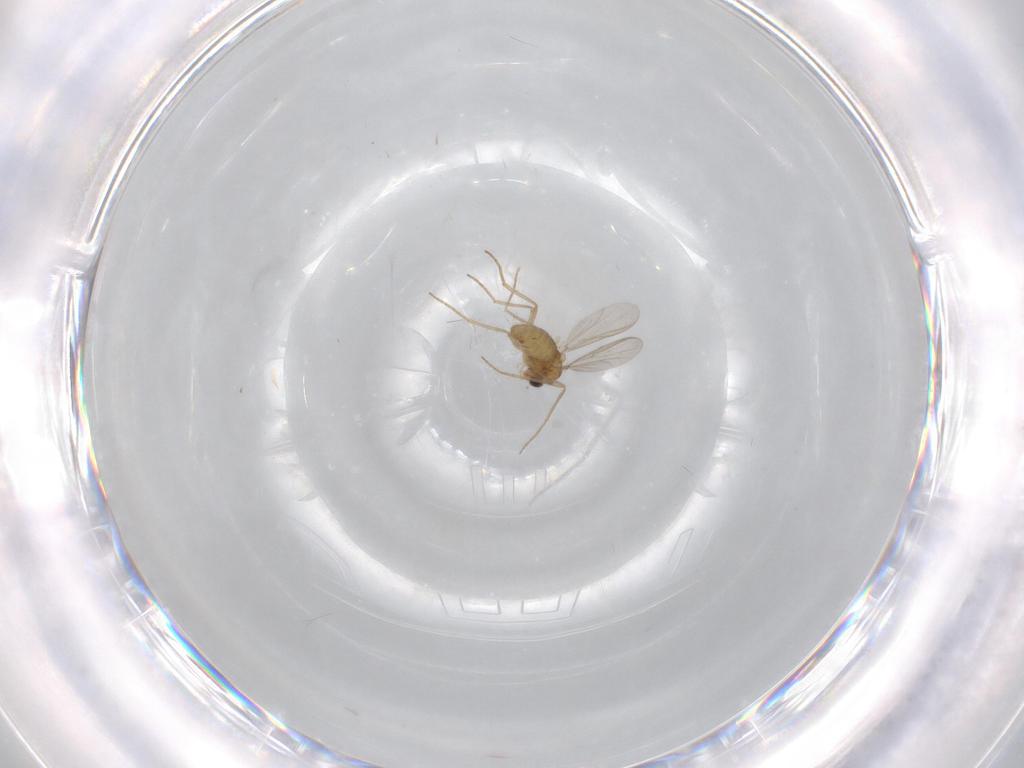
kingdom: Animalia
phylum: Arthropoda
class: Insecta
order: Diptera
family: Chironomidae
